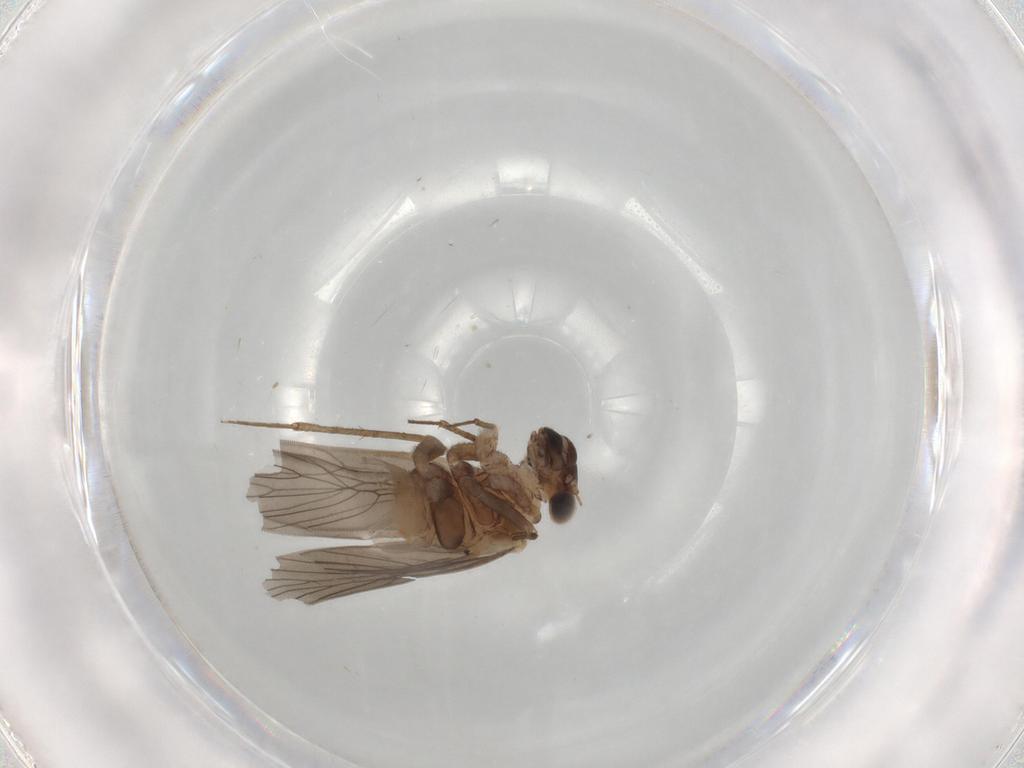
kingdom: Animalia
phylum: Arthropoda
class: Insecta
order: Psocodea
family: Lepidopsocidae
